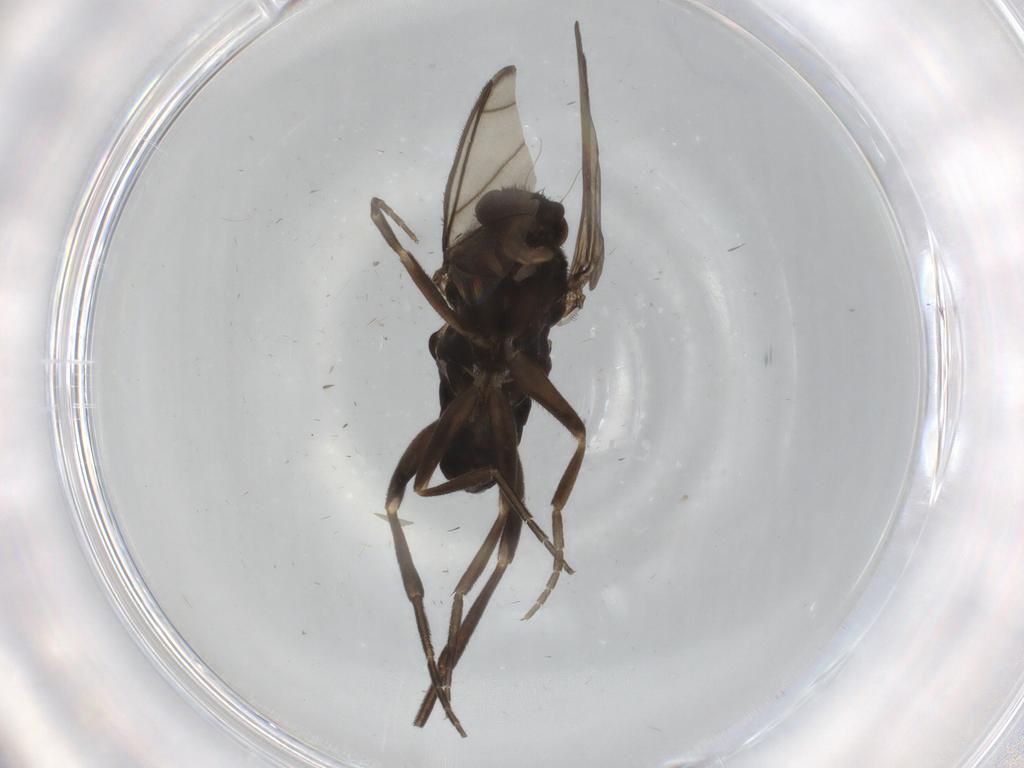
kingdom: Animalia
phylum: Arthropoda
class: Insecta
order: Diptera
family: Phoridae
